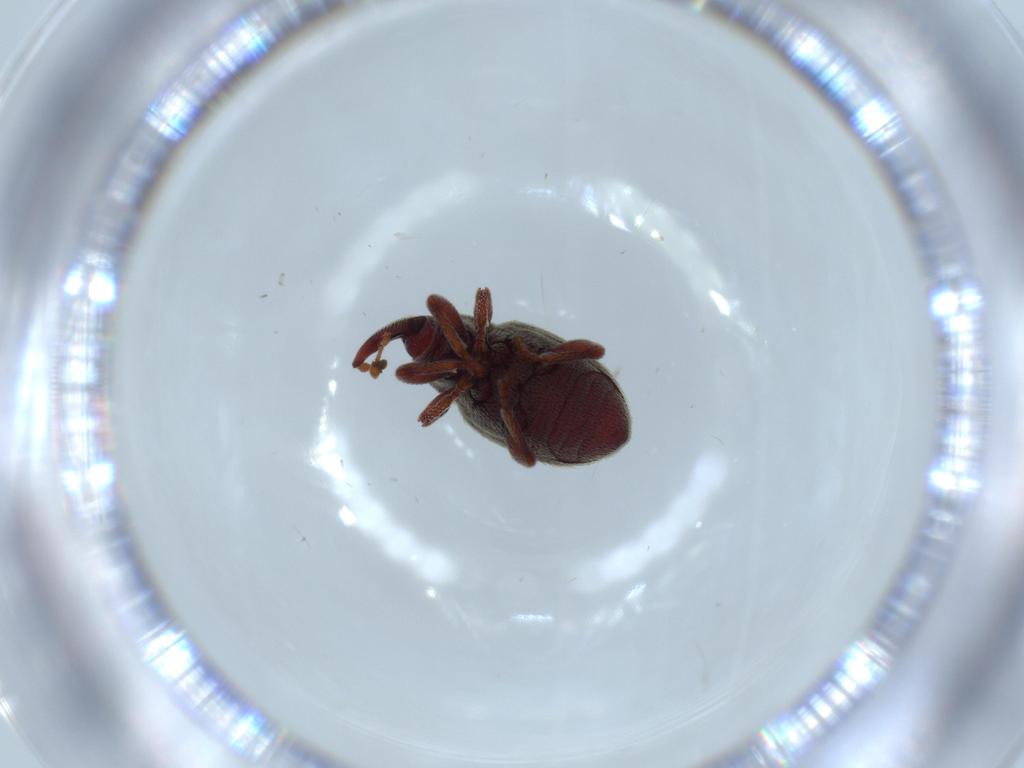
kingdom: Animalia
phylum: Arthropoda
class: Insecta
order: Coleoptera
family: Curculionidae
